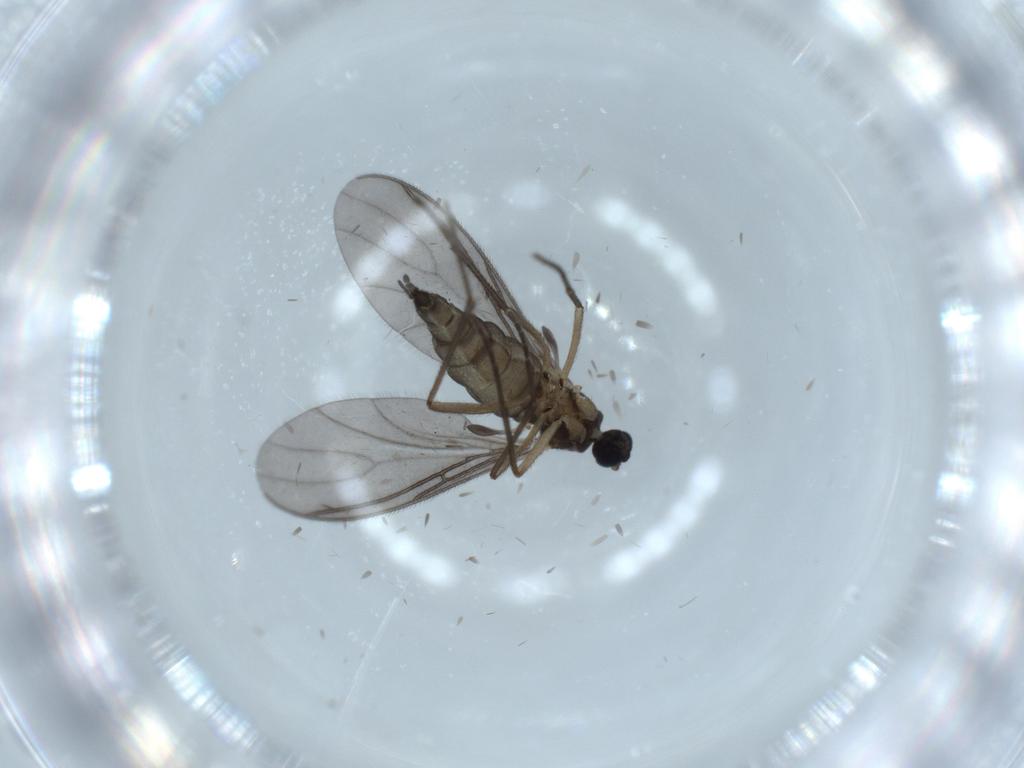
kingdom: Animalia
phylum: Arthropoda
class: Insecta
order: Diptera
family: Sciaridae
